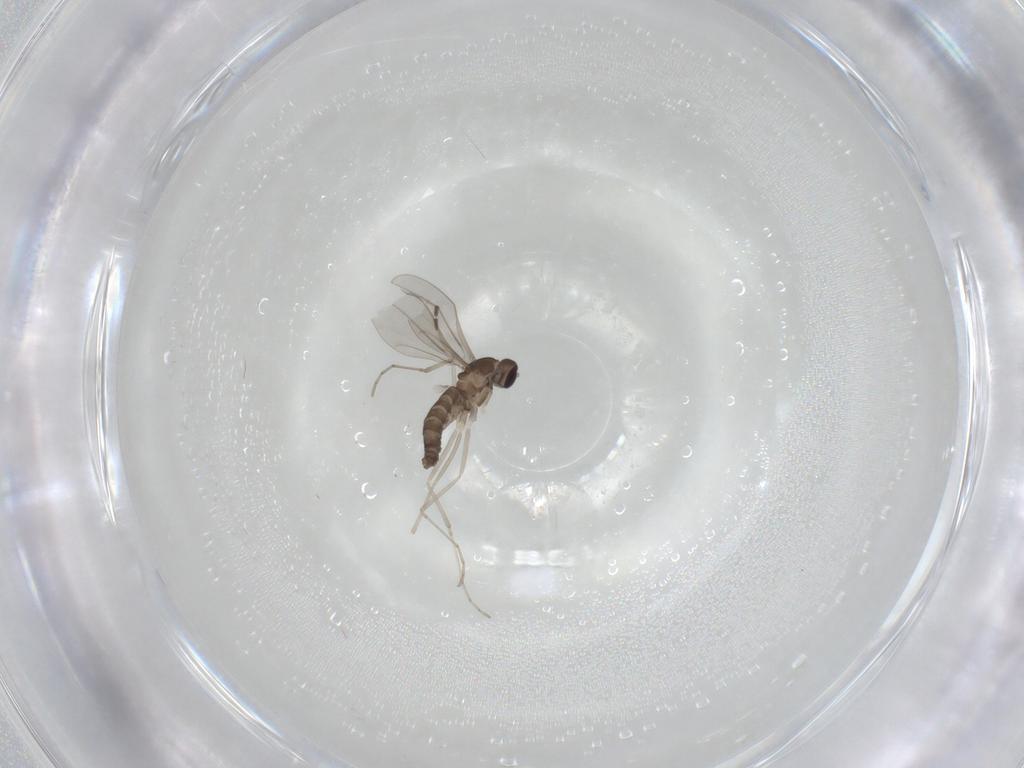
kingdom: Animalia
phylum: Arthropoda
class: Insecta
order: Diptera
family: Cecidomyiidae
